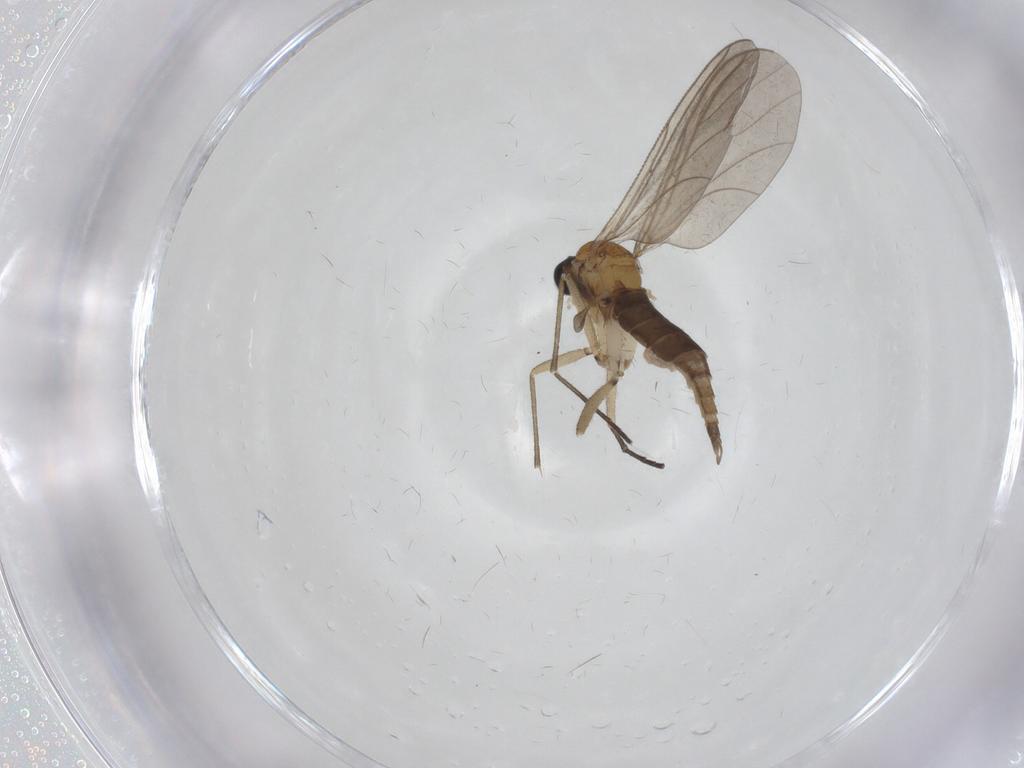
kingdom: Animalia
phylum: Arthropoda
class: Insecta
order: Diptera
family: Sciaridae
